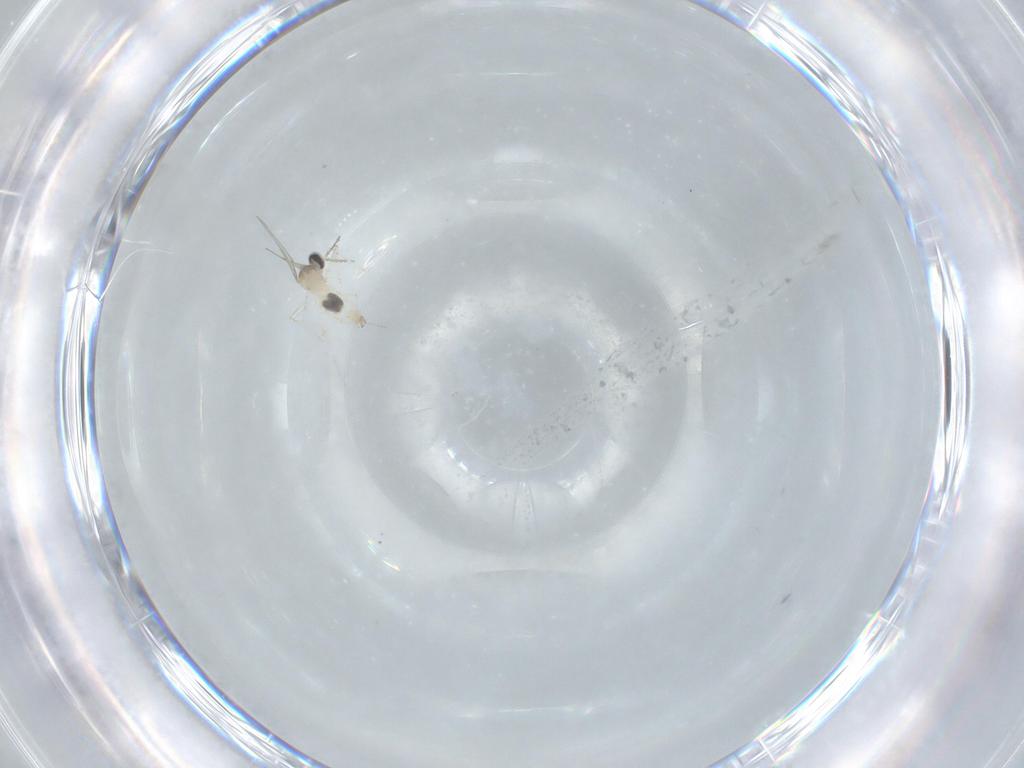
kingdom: Animalia
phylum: Arthropoda
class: Insecta
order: Diptera
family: Cecidomyiidae
